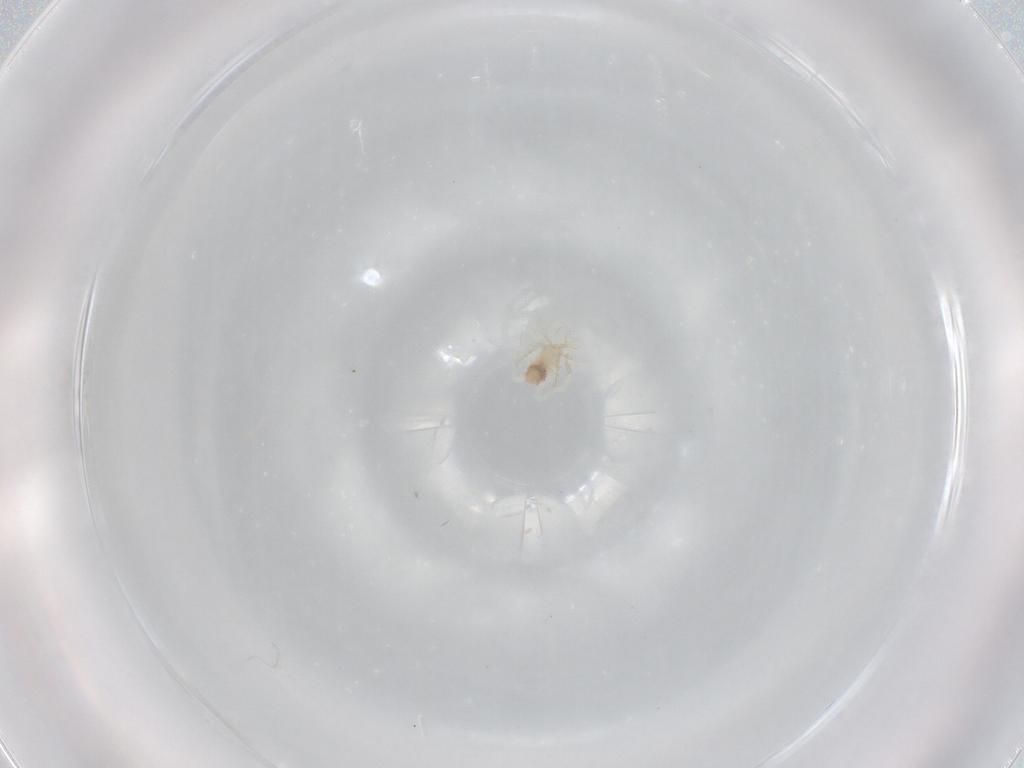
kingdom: Animalia
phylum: Arthropoda
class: Arachnida
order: Trombidiformes
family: Anystidae
